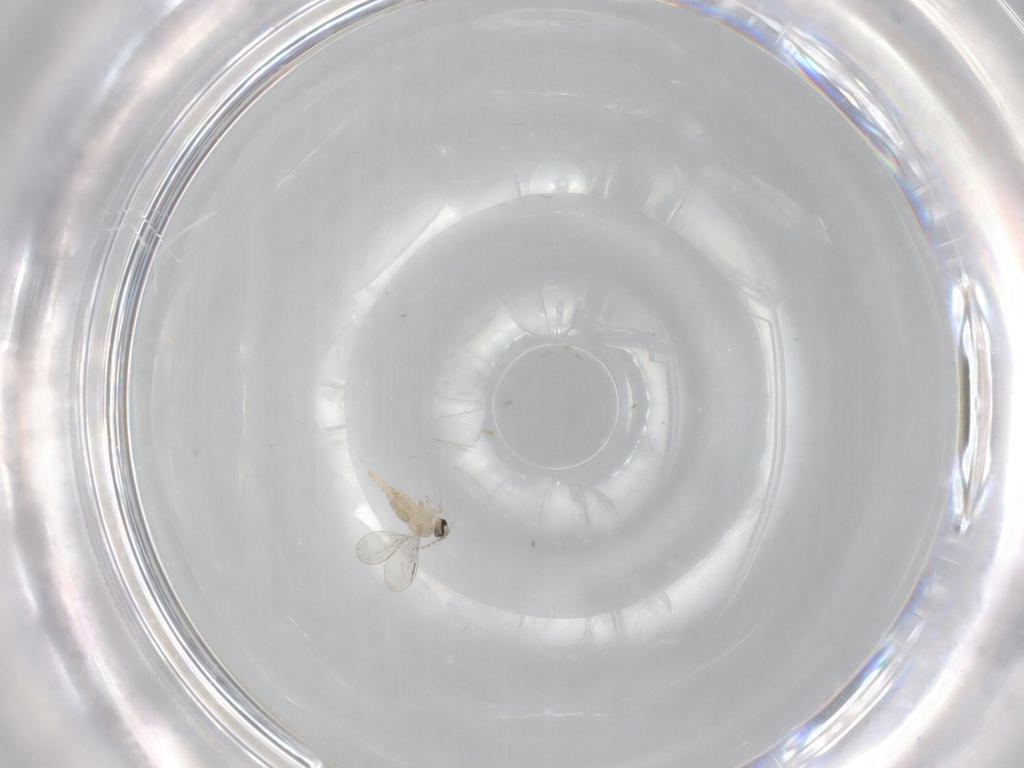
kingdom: Animalia
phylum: Arthropoda
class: Insecta
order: Diptera
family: Cecidomyiidae
